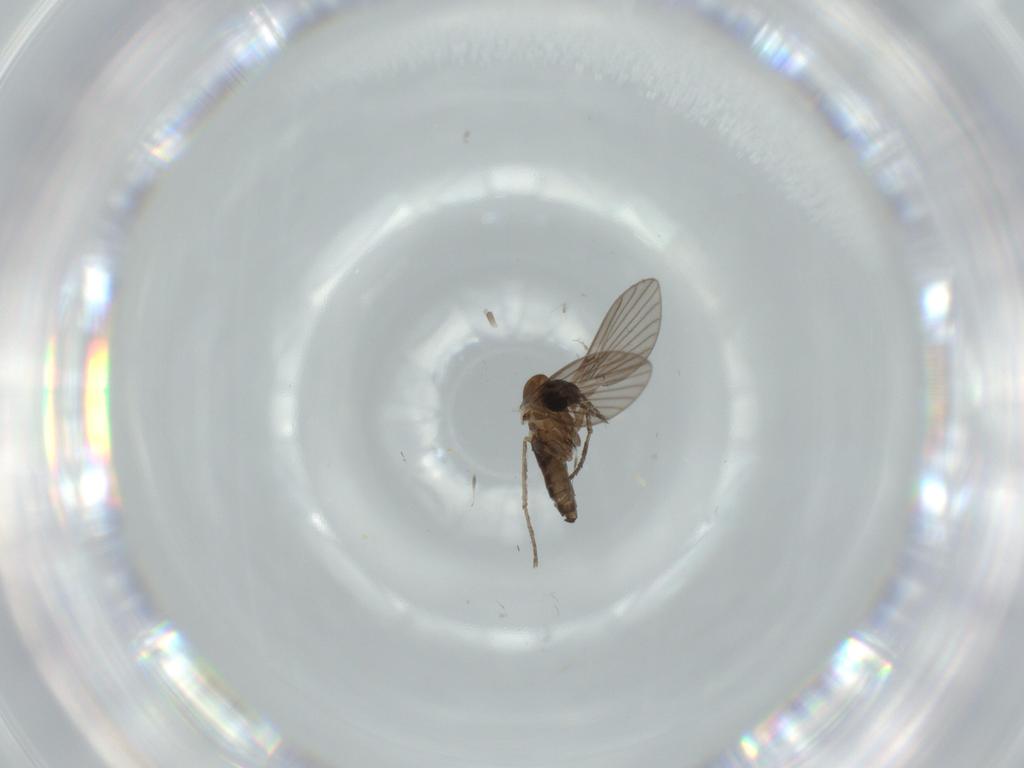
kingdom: Animalia
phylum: Arthropoda
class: Insecta
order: Diptera
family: Psychodidae
